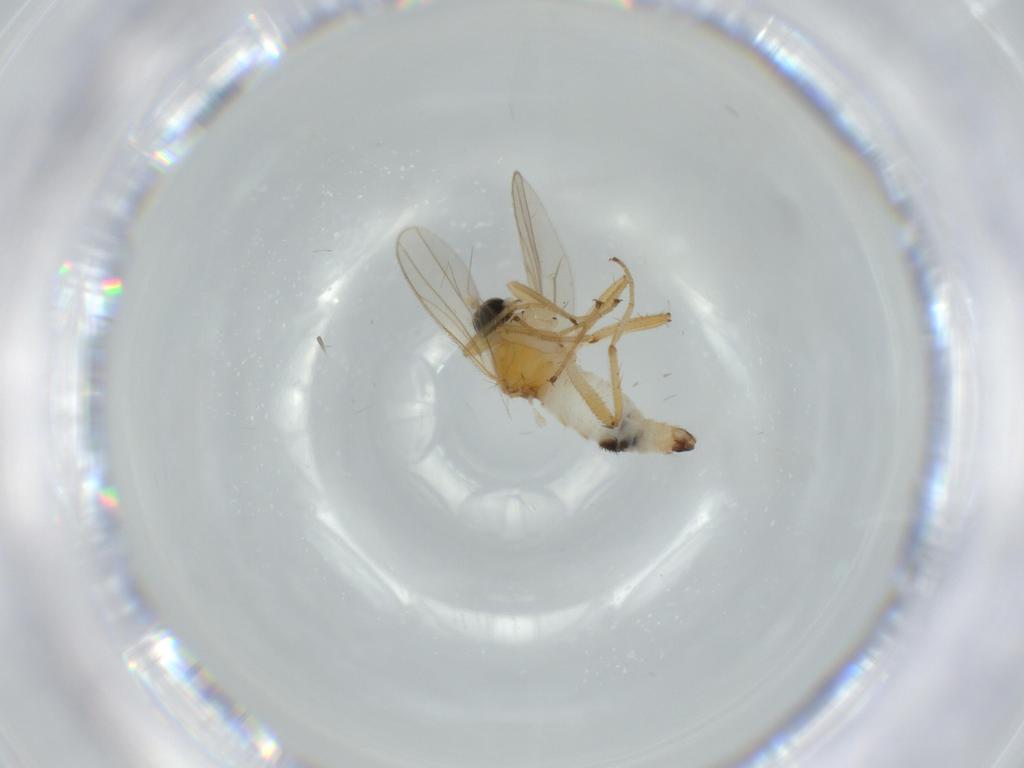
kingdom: Animalia
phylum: Arthropoda
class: Insecta
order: Diptera
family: Hybotidae
